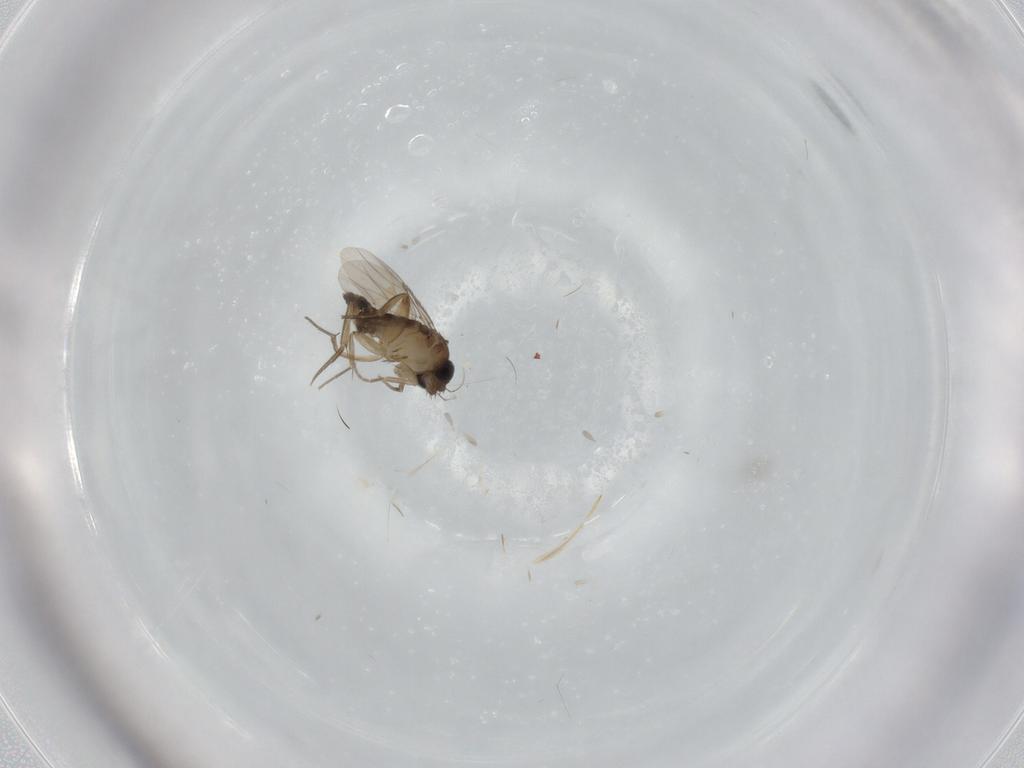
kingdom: Animalia
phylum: Arthropoda
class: Insecta
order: Diptera
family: Phoridae
